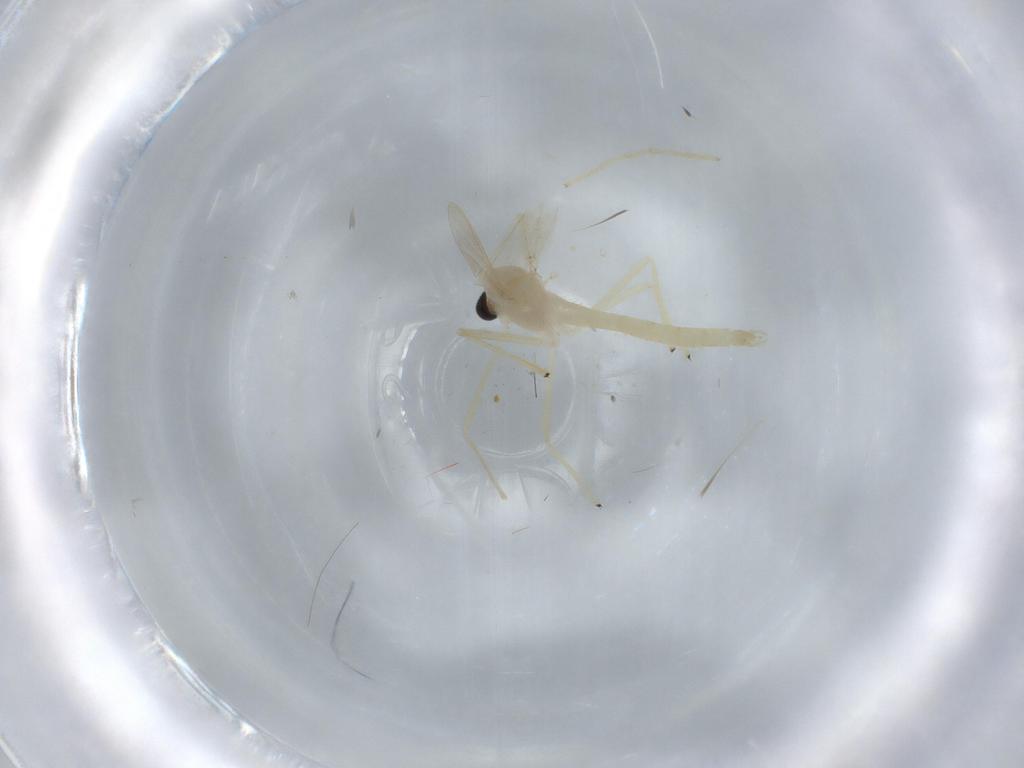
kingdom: Animalia
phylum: Arthropoda
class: Insecta
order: Diptera
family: Chironomidae
